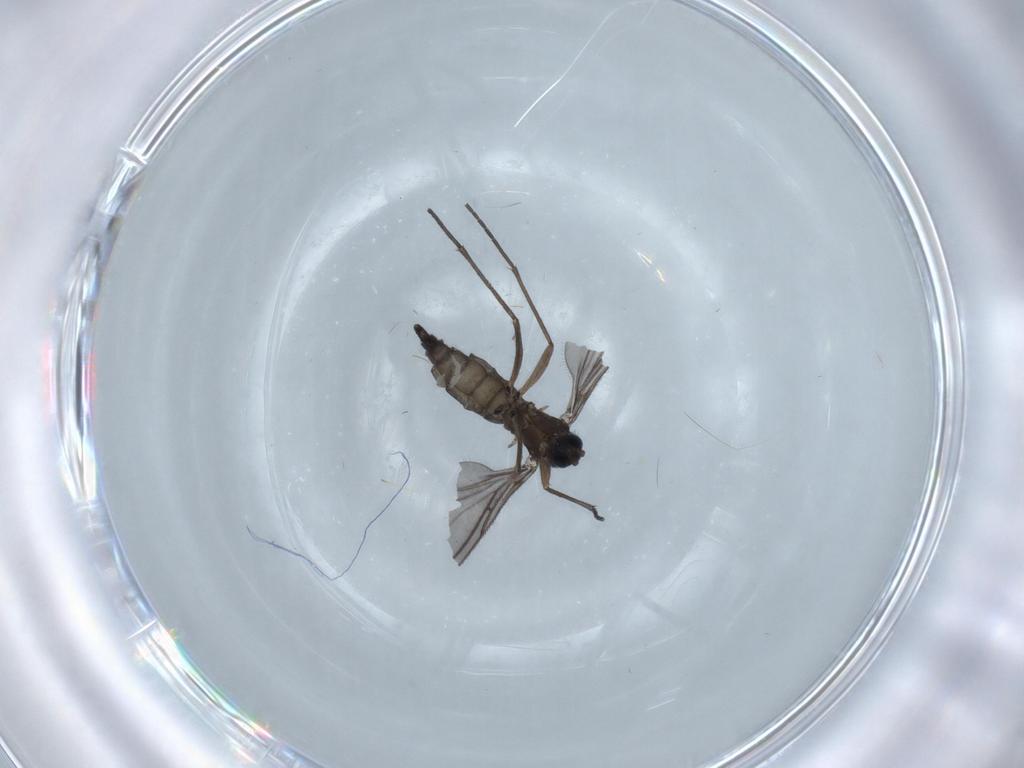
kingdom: Animalia
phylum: Arthropoda
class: Insecta
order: Diptera
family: Sciaridae
